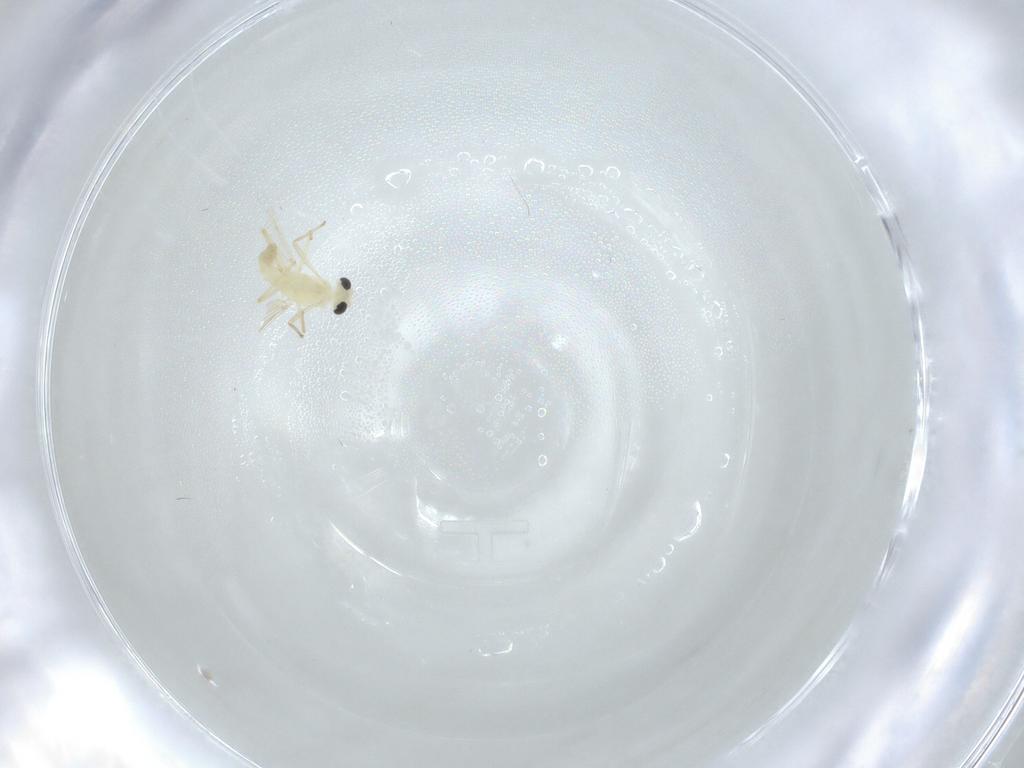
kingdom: Animalia
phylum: Arthropoda
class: Insecta
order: Diptera
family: Chironomidae
